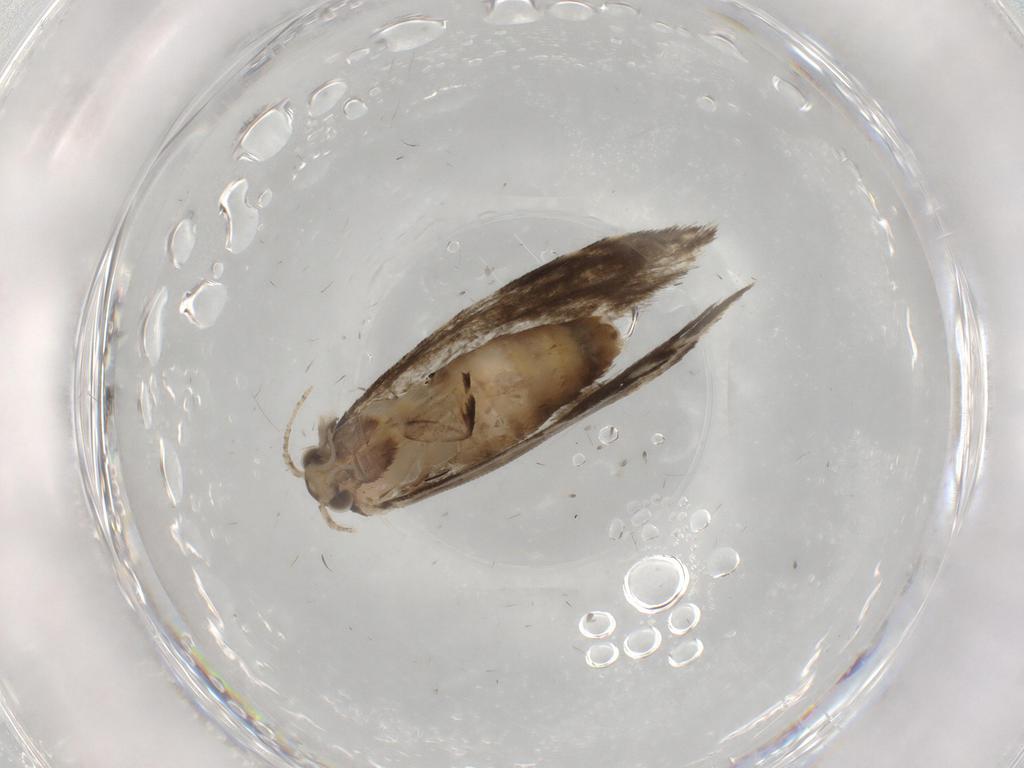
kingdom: Animalia
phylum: Arthropoda
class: Insecta
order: Lepidoptera
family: Tineidae
